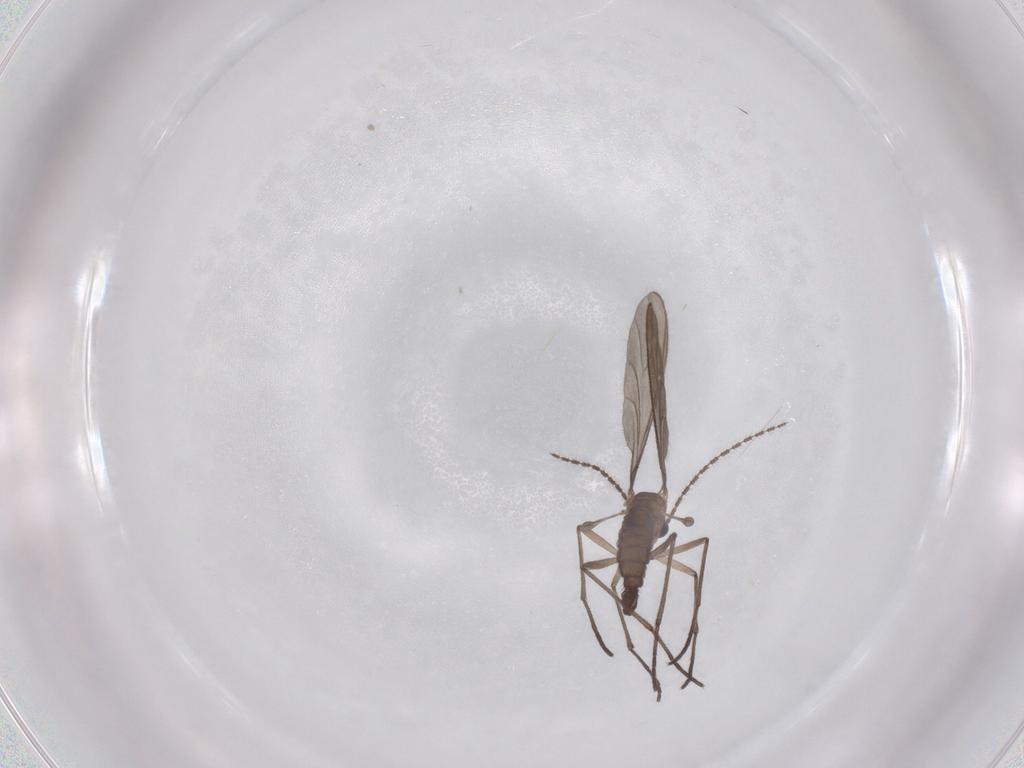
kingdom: Animalia
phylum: Arthropoda
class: Insecta
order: Diptera
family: Sciaridae
